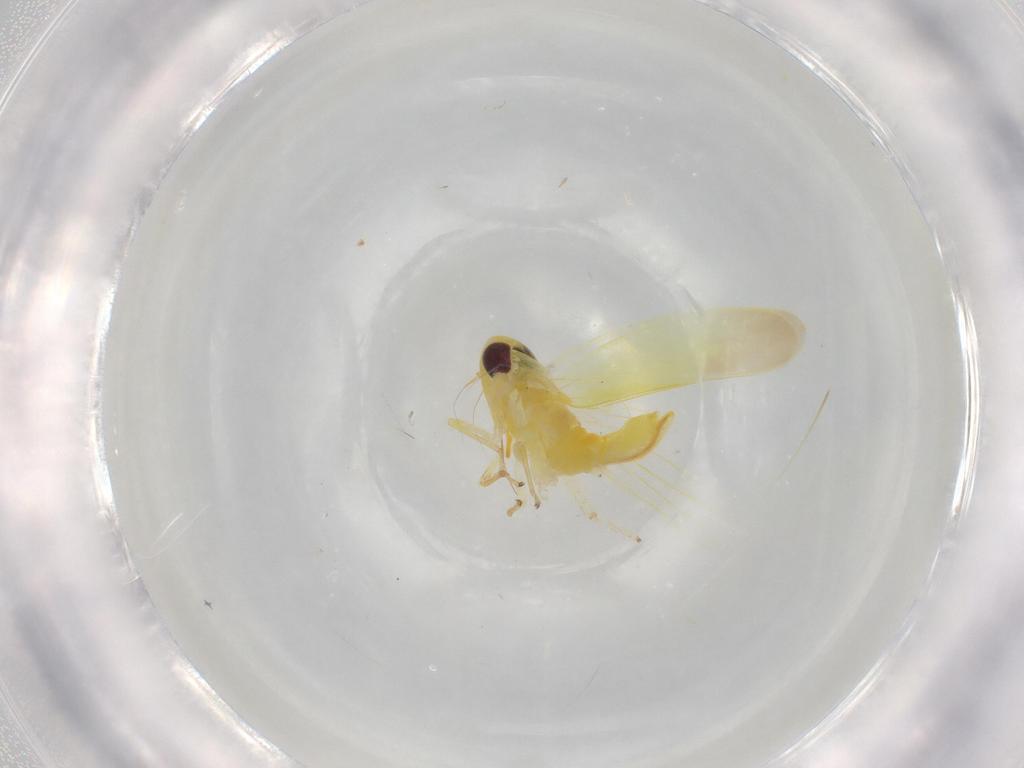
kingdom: Animalia
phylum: Arthropoda
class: Insecta
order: Hemiptera
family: Cicadellidae
